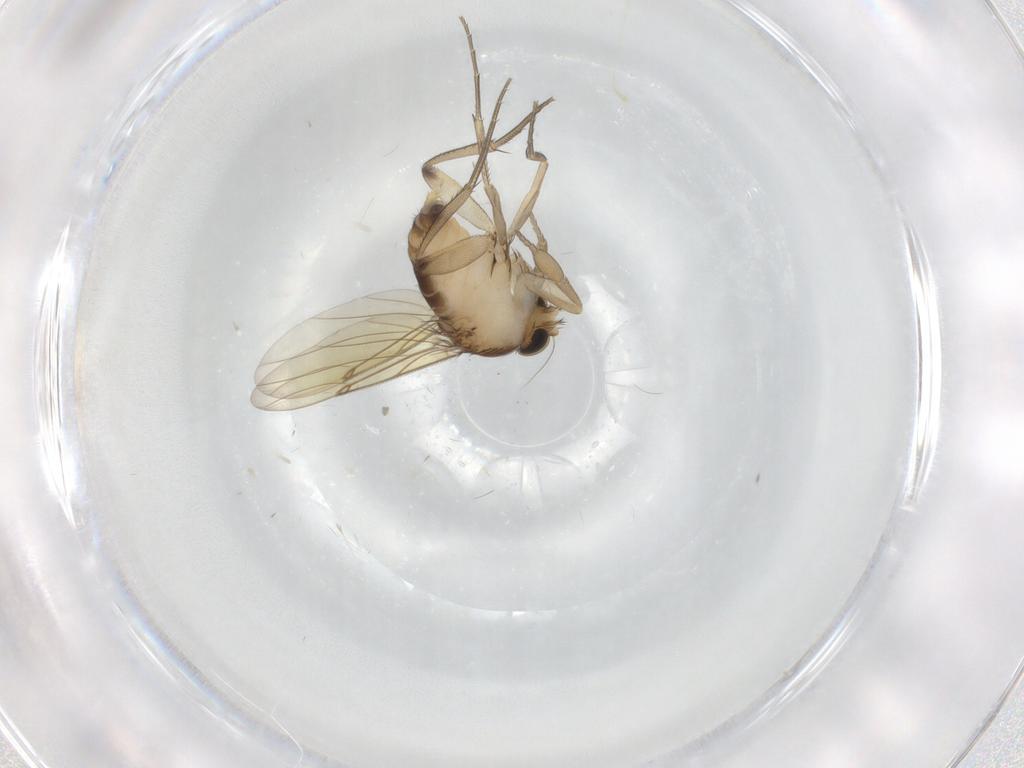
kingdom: Animalia
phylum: Arthropoda
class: Insecta
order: Diptera
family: Phoridae
